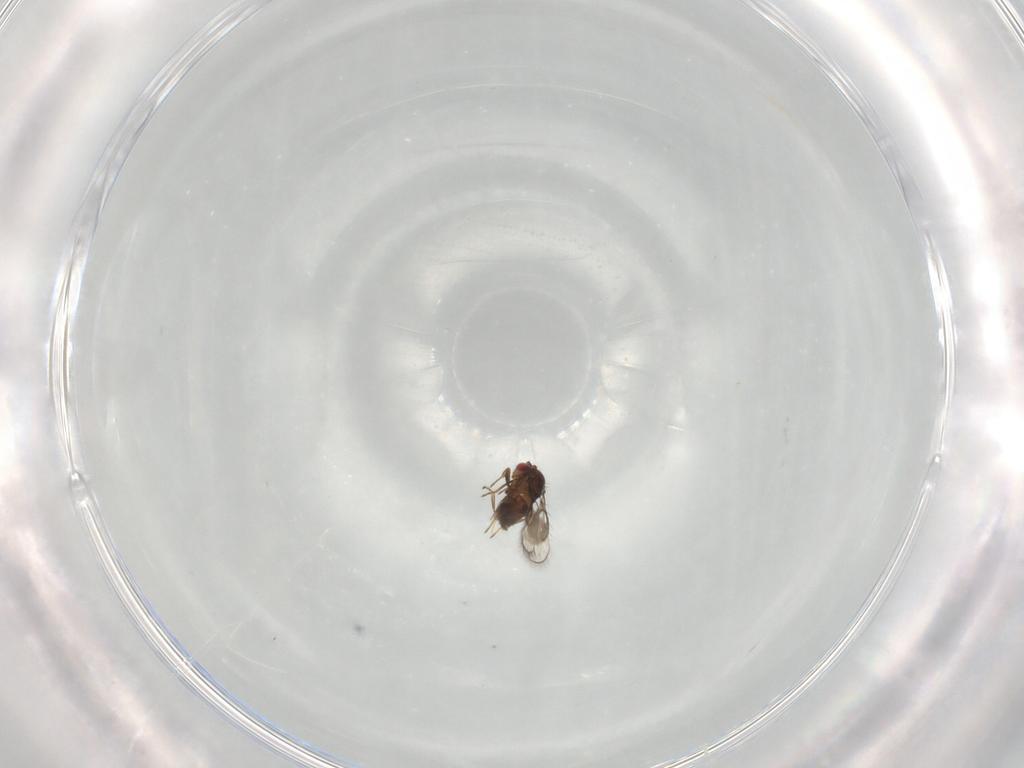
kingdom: Animalia
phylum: Arthropoda
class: Insecta
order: Hymenoptera
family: Trichogrammatidae
